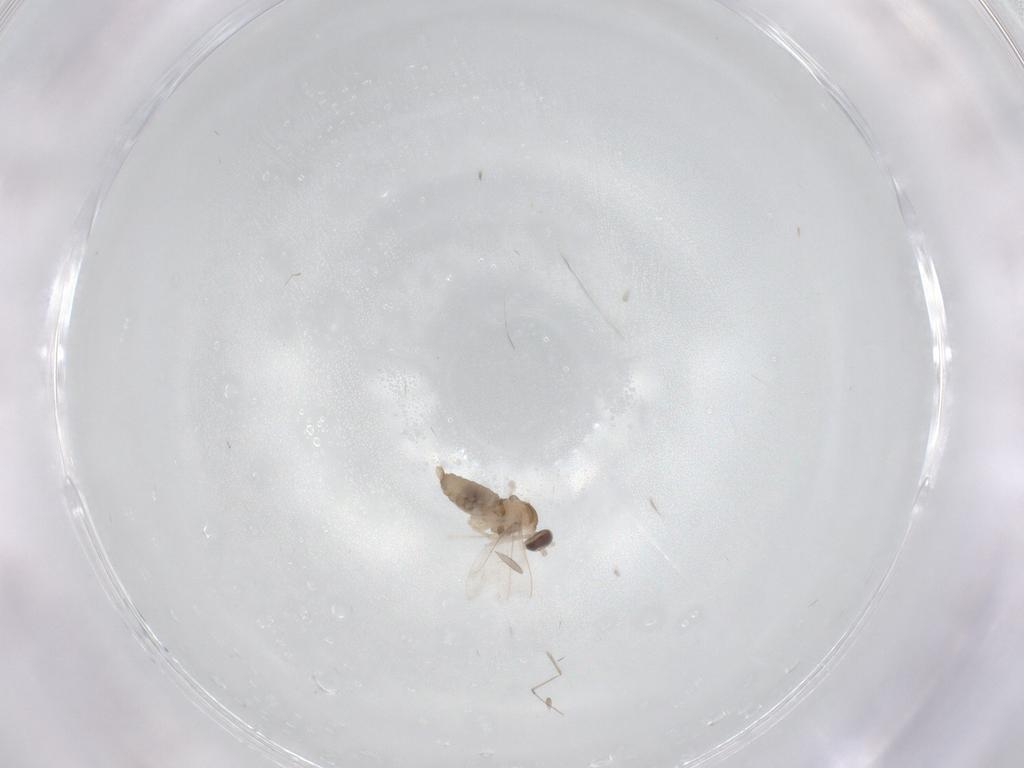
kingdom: Animalia
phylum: Arthropoda
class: Insecta
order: Diptera
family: Cecidomyiidae
